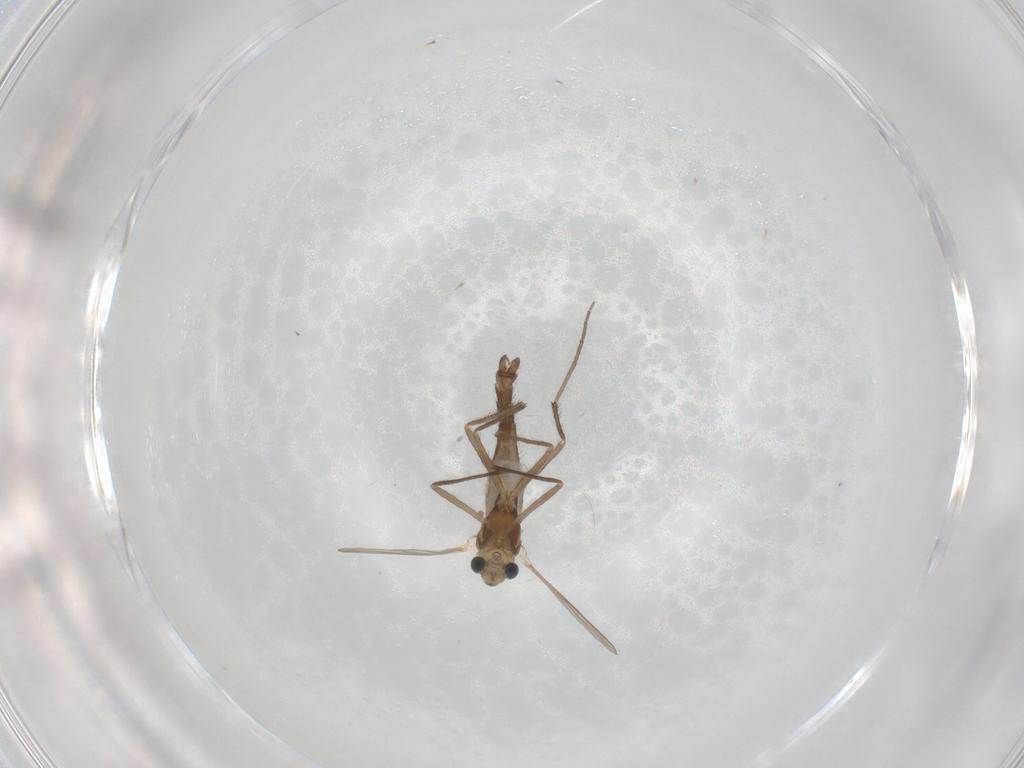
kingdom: Animalia
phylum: Arthropoda
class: Insecta
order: Diptera
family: Chironomidae
